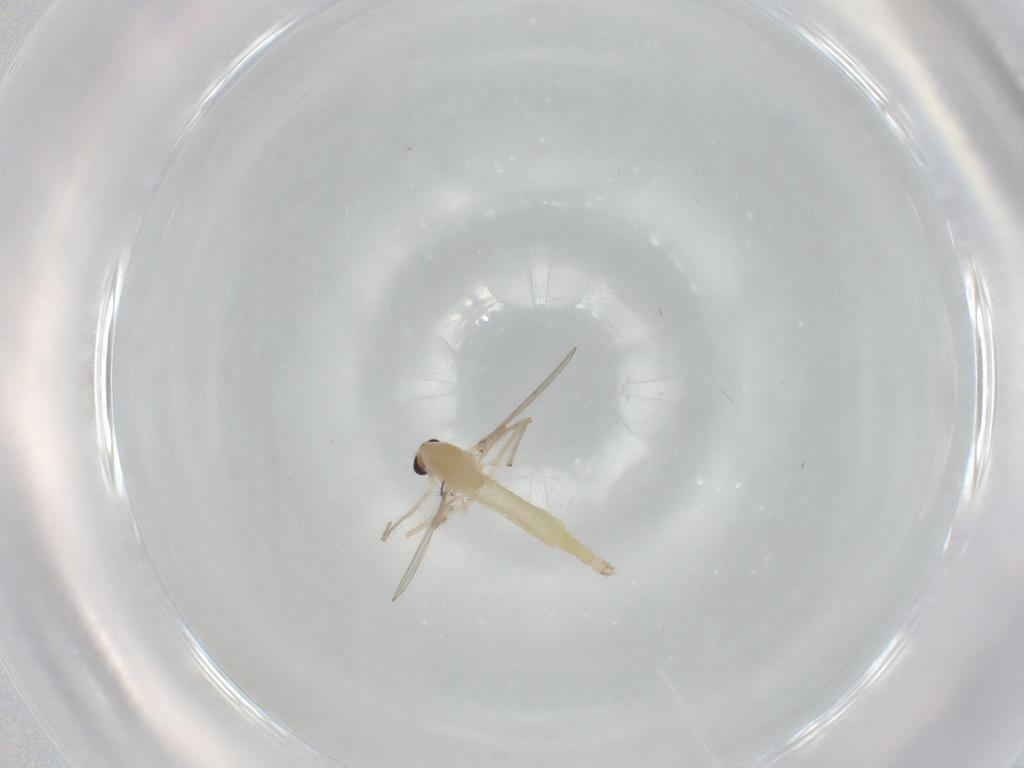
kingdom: Animalia
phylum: Arthropoda
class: Insecta
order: Diptera
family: Chironomidae
